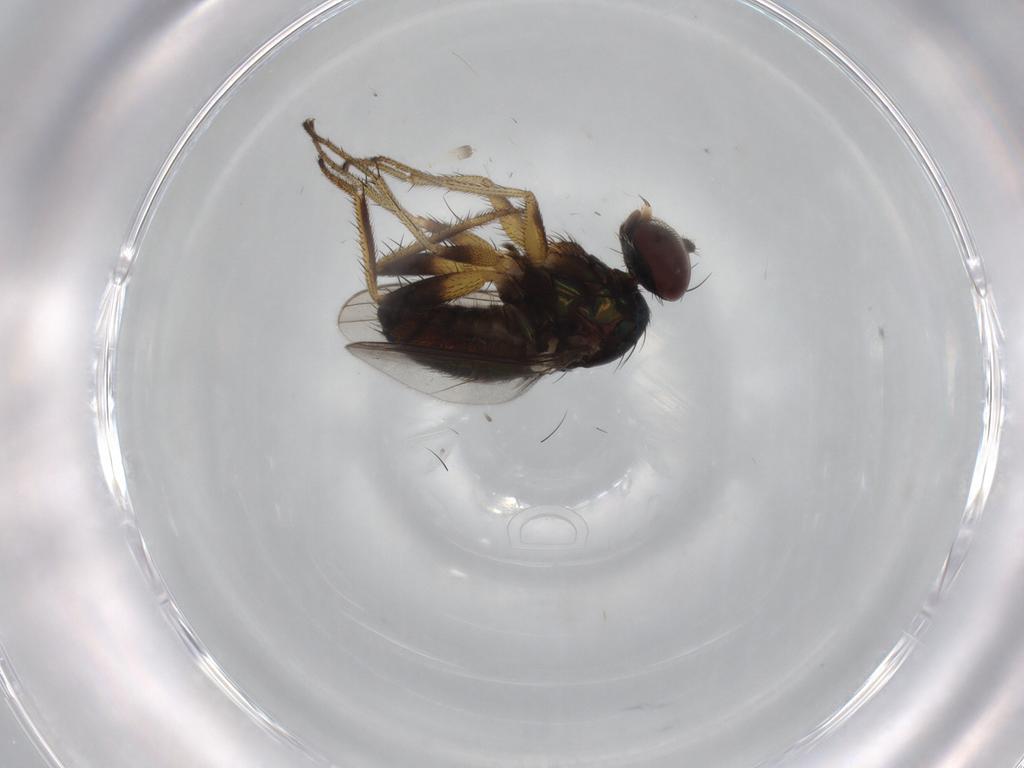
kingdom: Animalia
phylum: Arthropoda
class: Insecta
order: Diptera
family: Dolichopodidae
